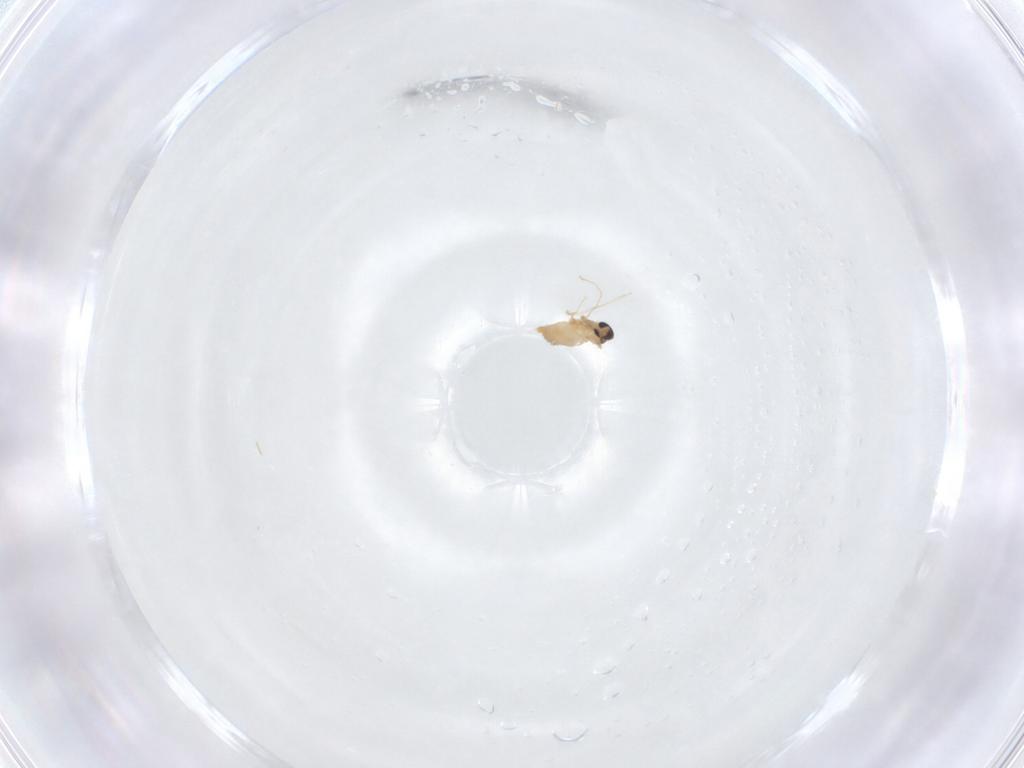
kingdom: Animalia
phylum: Arthropoda
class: Insecta
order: Diptera
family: Cecidomyiidae
